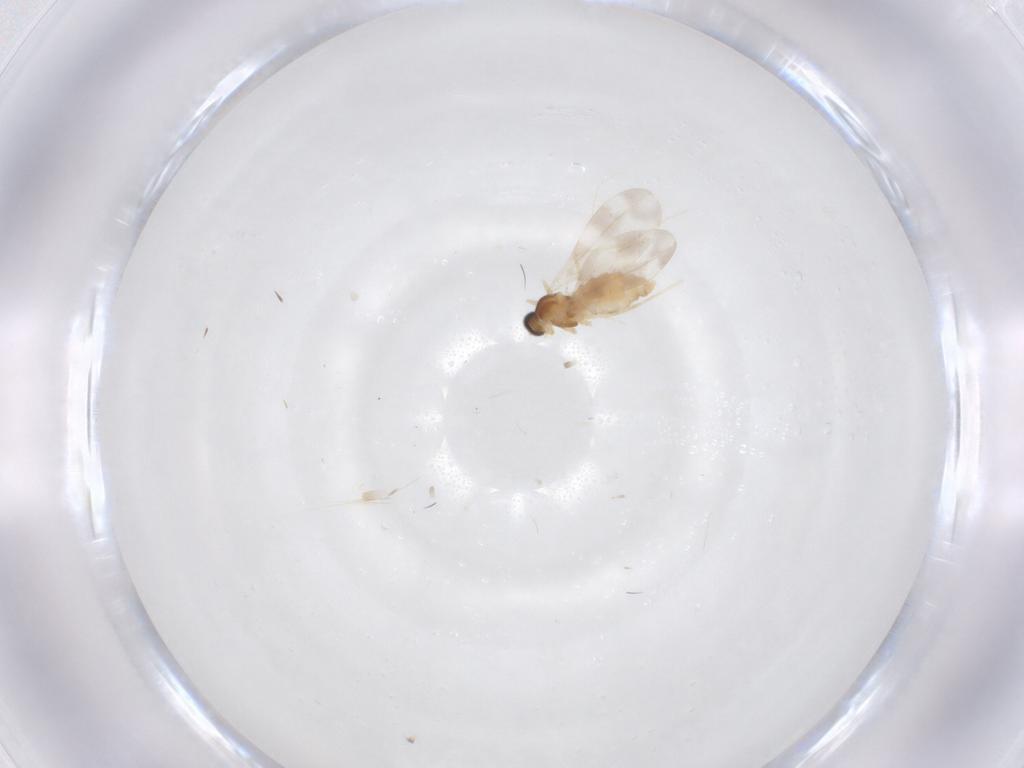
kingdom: Animalia
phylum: Arthropoda
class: Insecta
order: Diptera
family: Cecidomyiidae
